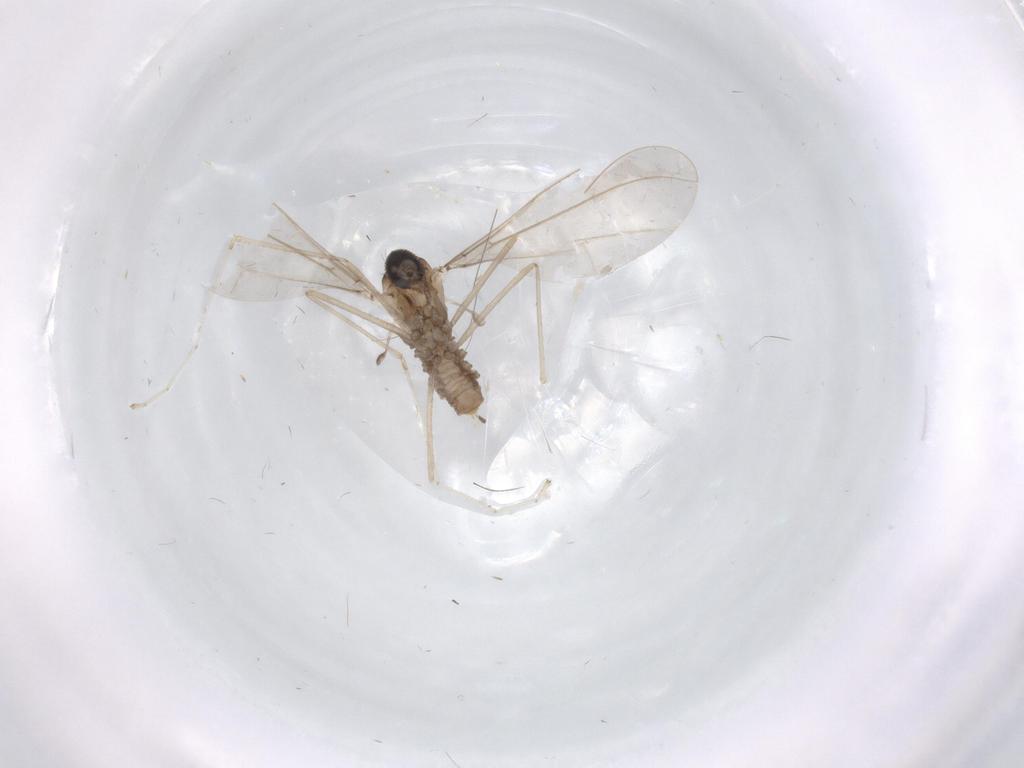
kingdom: Animalia
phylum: Arthropoda
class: Insecta
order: Diptera
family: Cecidomyiidae
